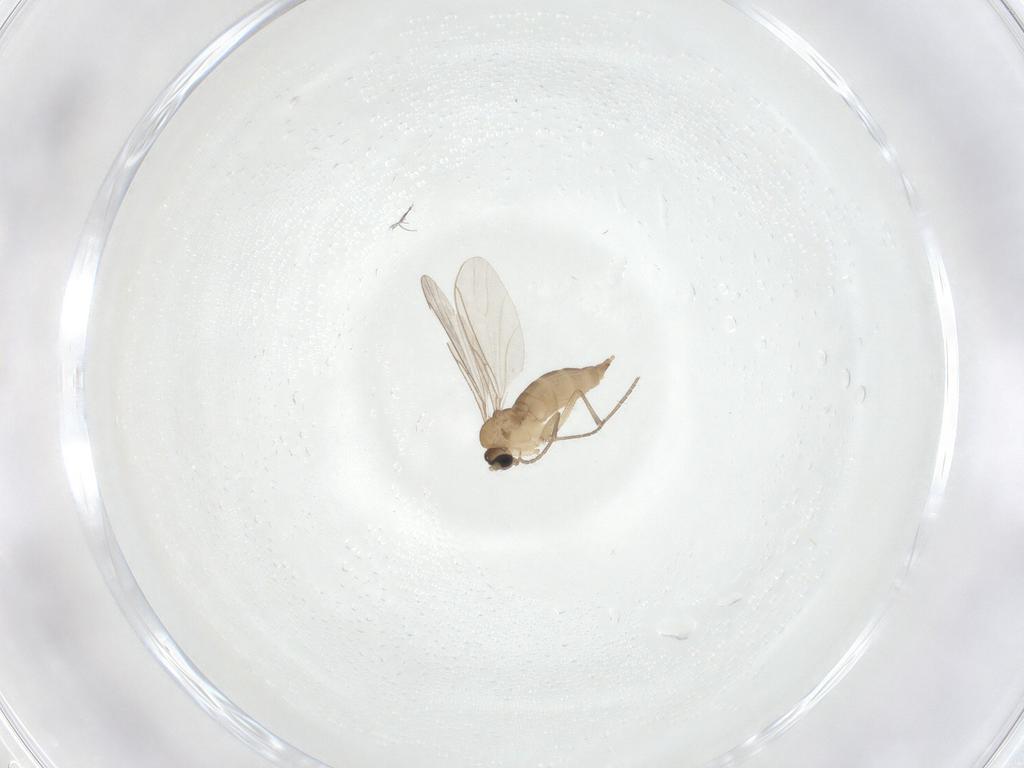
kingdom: Animalia
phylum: Arthropoda
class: Insecta
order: Diptera
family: Sciaridae
